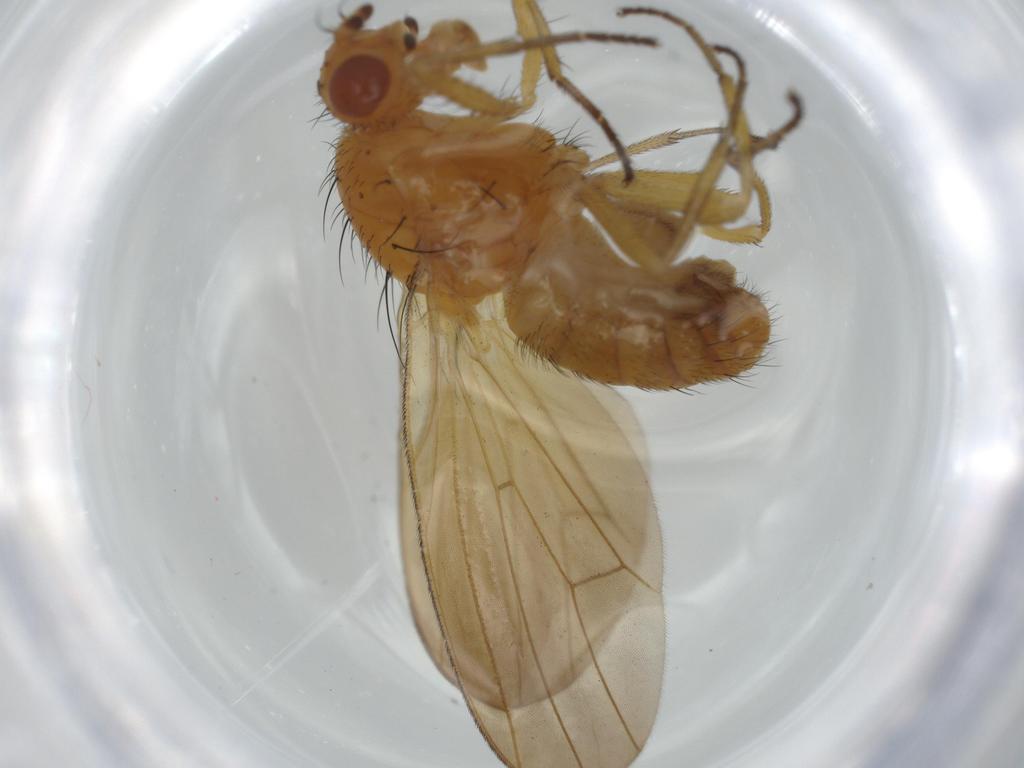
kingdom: Animalia
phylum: Arthropoda
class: Insecta
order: Diptera
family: Lauxaniidae
